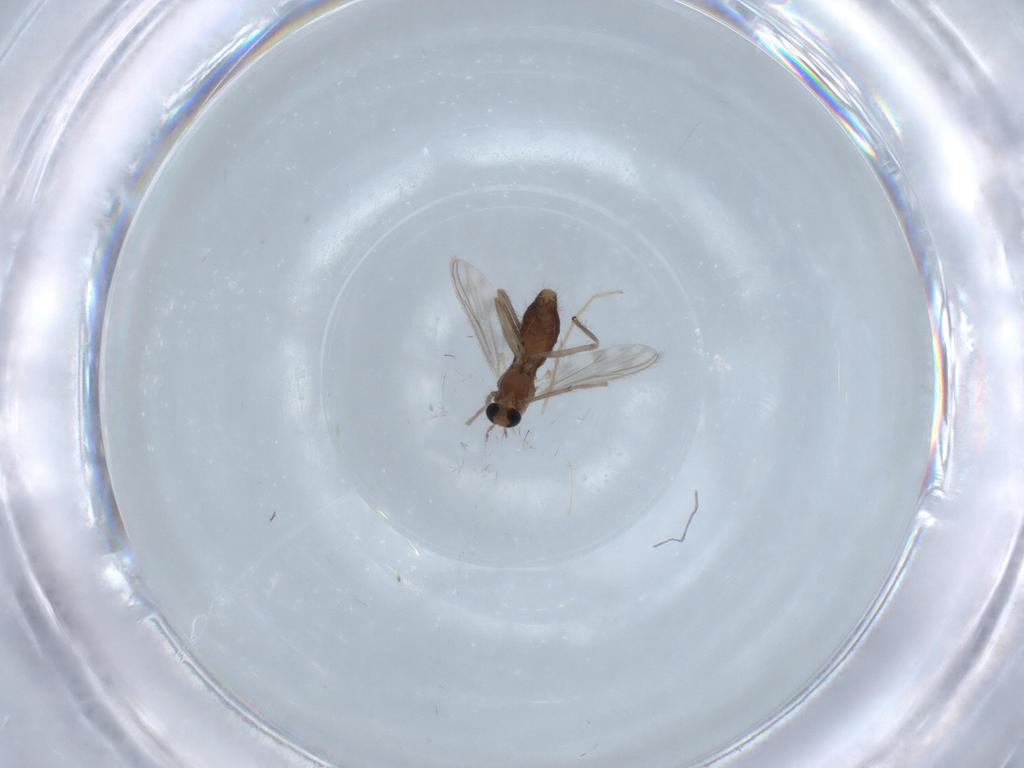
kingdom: Animalia
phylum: Arthropoda
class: Insecta
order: Diptera
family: Chironomidae
